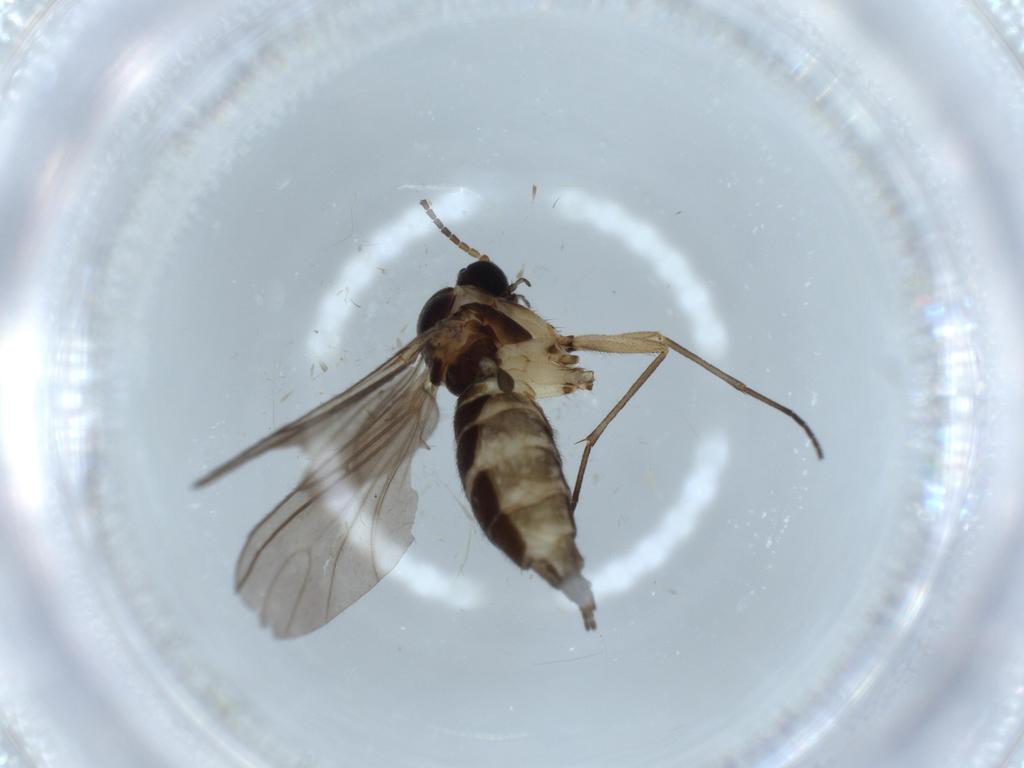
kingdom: Animalia
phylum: Arthropoda
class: Insecta
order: Diptera
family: Sciaridae
